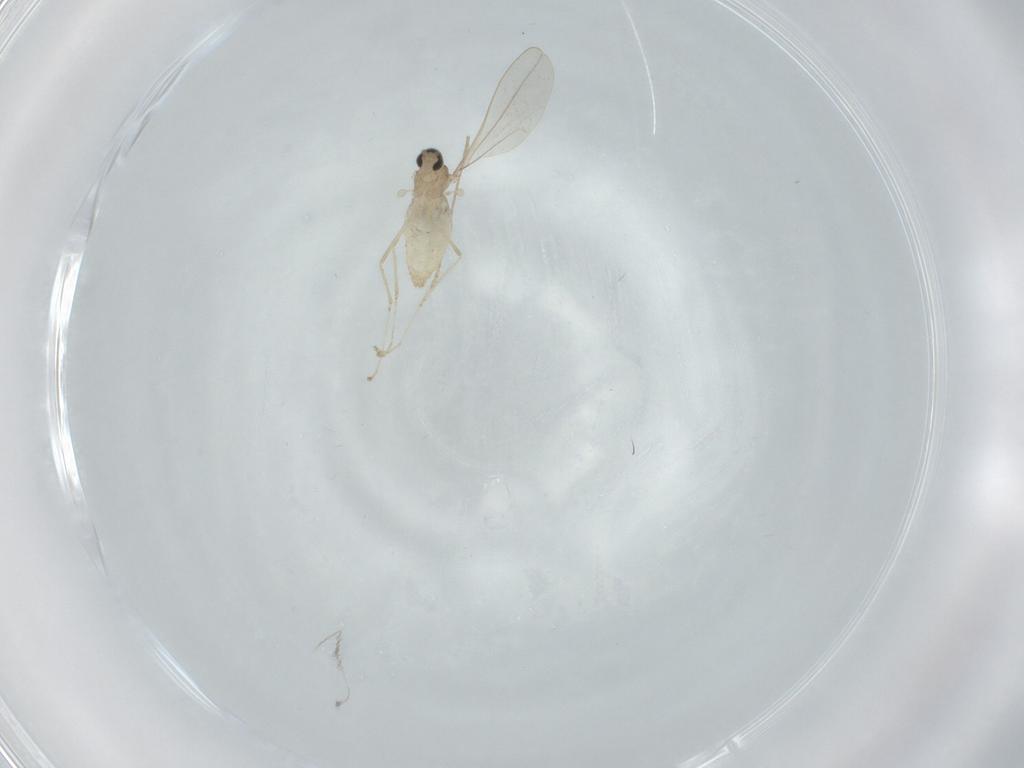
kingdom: Animalia
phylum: Arthropoda
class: Insecta
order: Diptera
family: Cecidomyiidae
